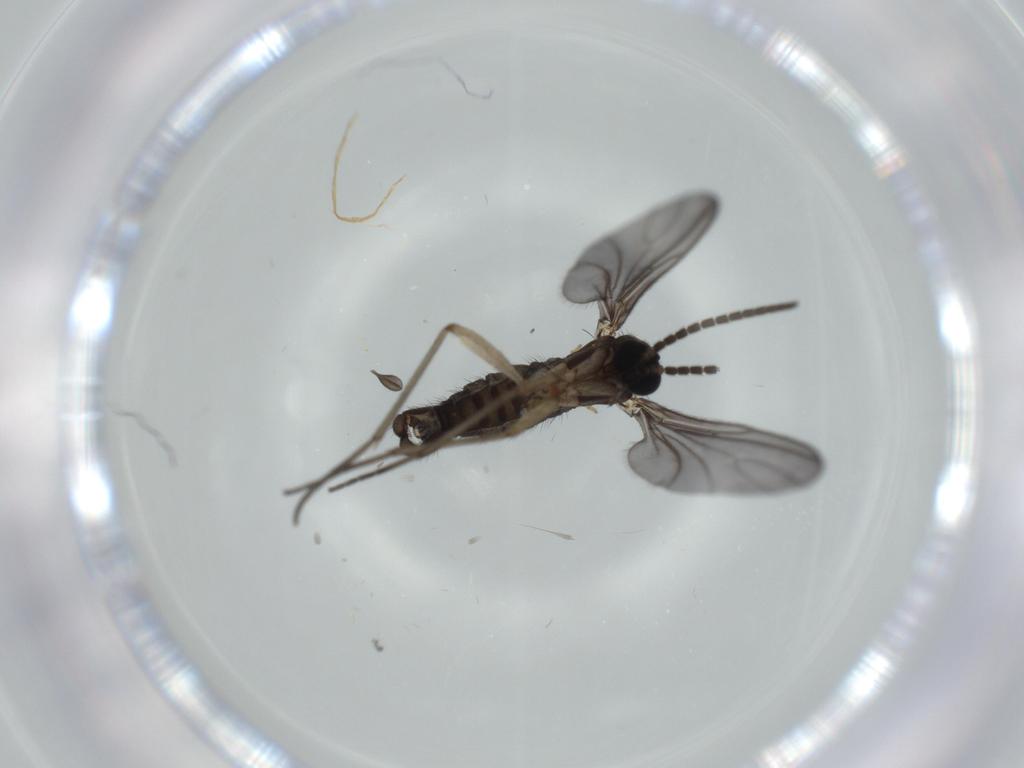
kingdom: Animalia
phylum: Arthropoda
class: Insecta
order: Diptera
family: Sciaridae
